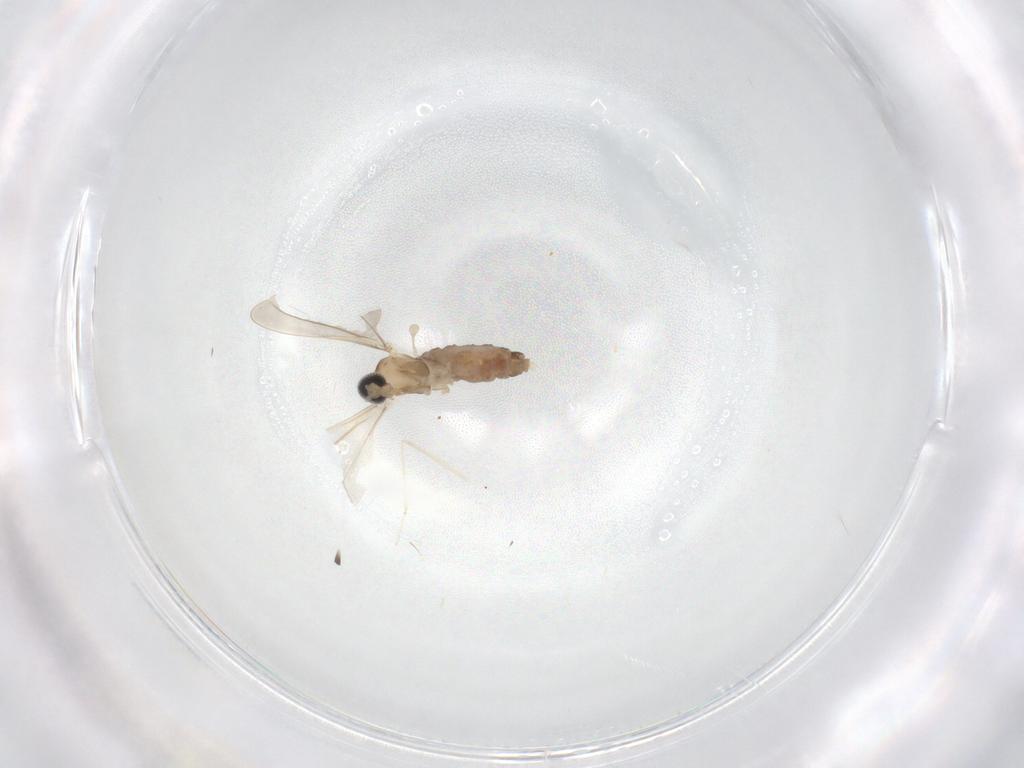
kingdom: Animalia
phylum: Arthropoda
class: Insecta
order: Diptera
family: Cecidomyiidae
